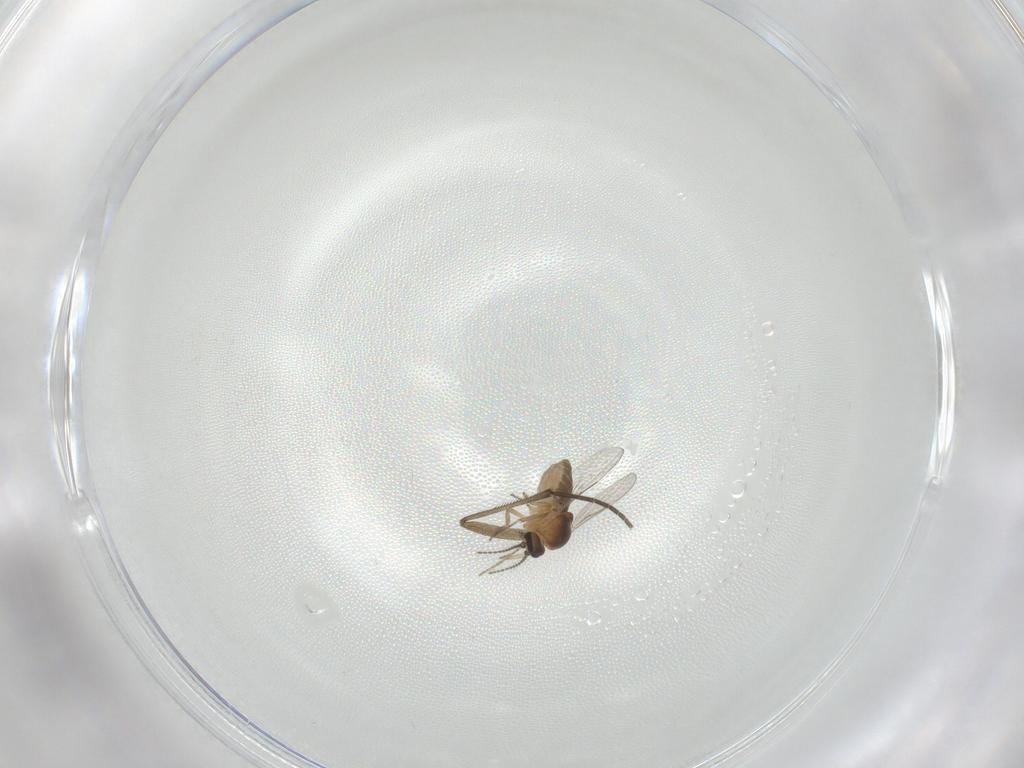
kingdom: Animalia
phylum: Arthropoda
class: Insecta
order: Diptera
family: Ceratopogonidae
